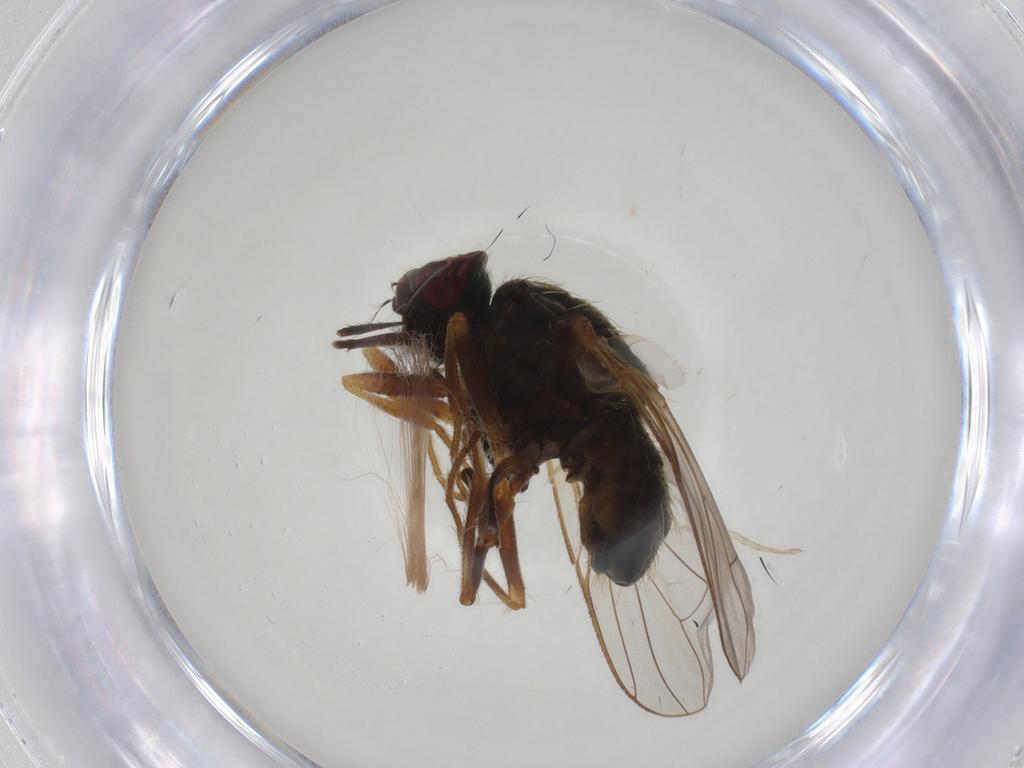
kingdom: Animalia
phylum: Arthropoda
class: Insecta
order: Diptera
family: Muscidae
